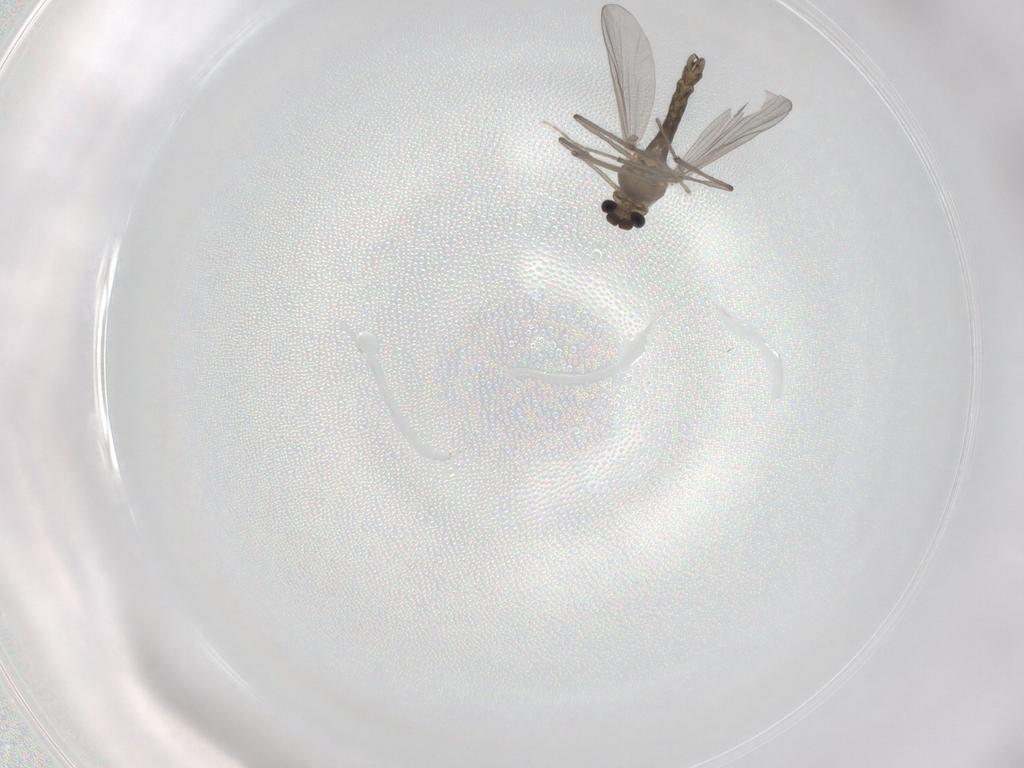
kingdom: Animalia
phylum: Arthropoda
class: Insecta
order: Diptera
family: Chironomidae
